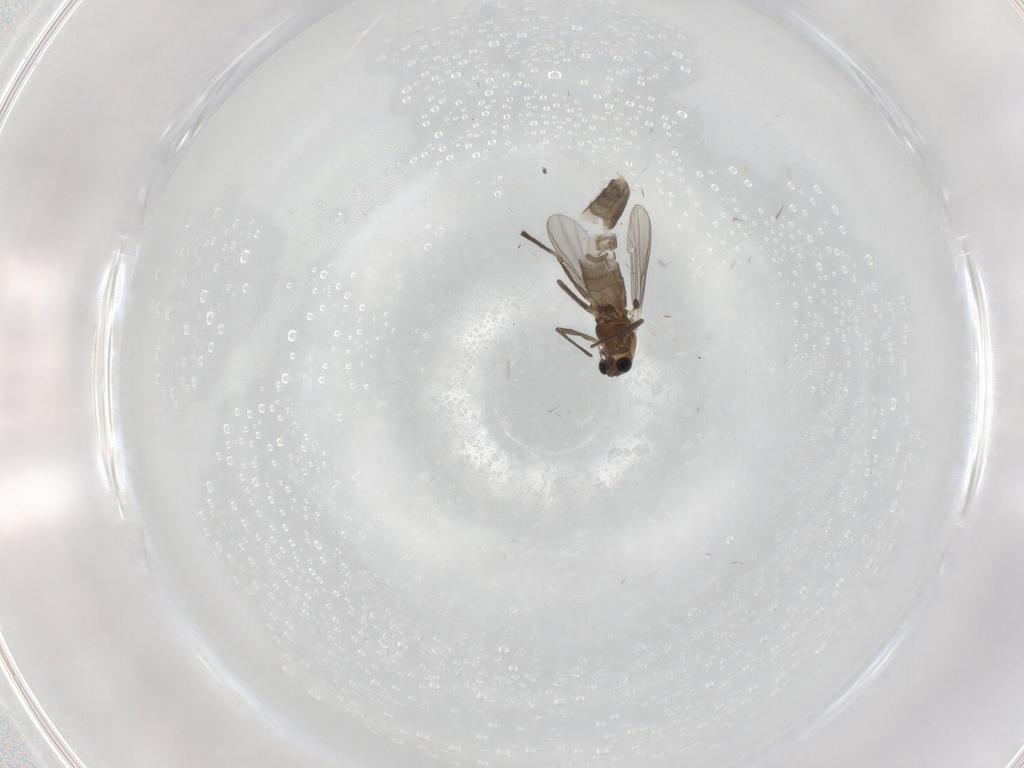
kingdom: Animalia
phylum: Arthropoda
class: Insecta
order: Diptera
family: Chironomidae
